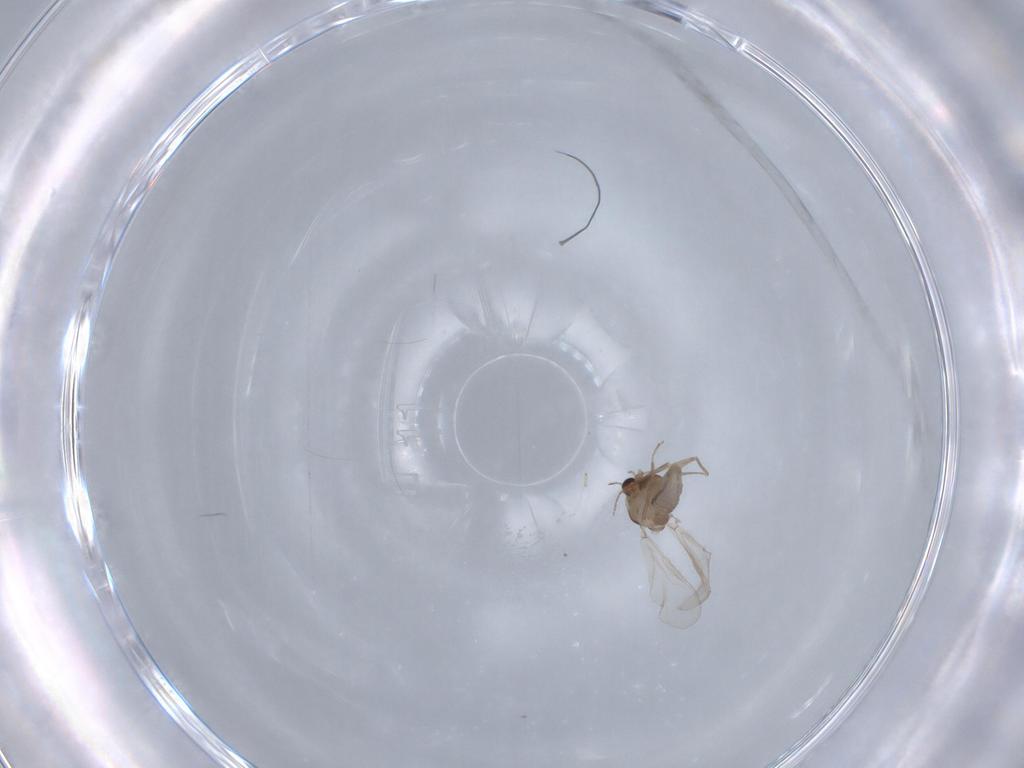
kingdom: Animalia
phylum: Arthropoda
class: Insecta
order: Diptera
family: Chironomidae
